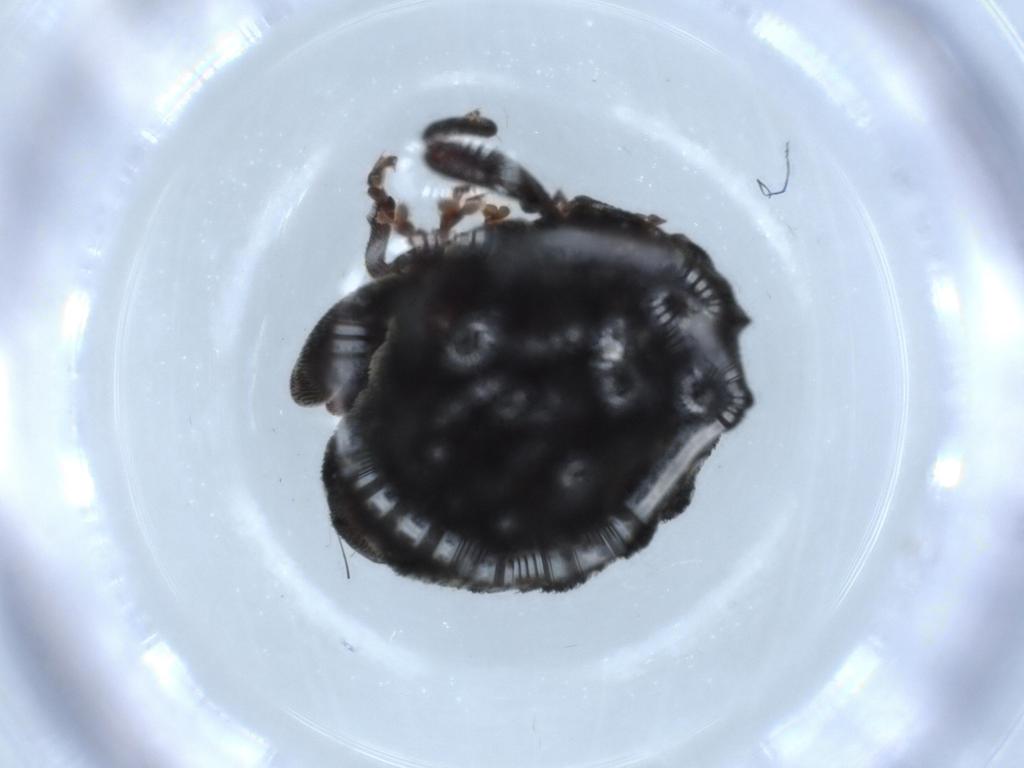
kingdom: Animalia
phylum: Arthropoda
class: Insecta
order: Coleoptera
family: Curculionidae
